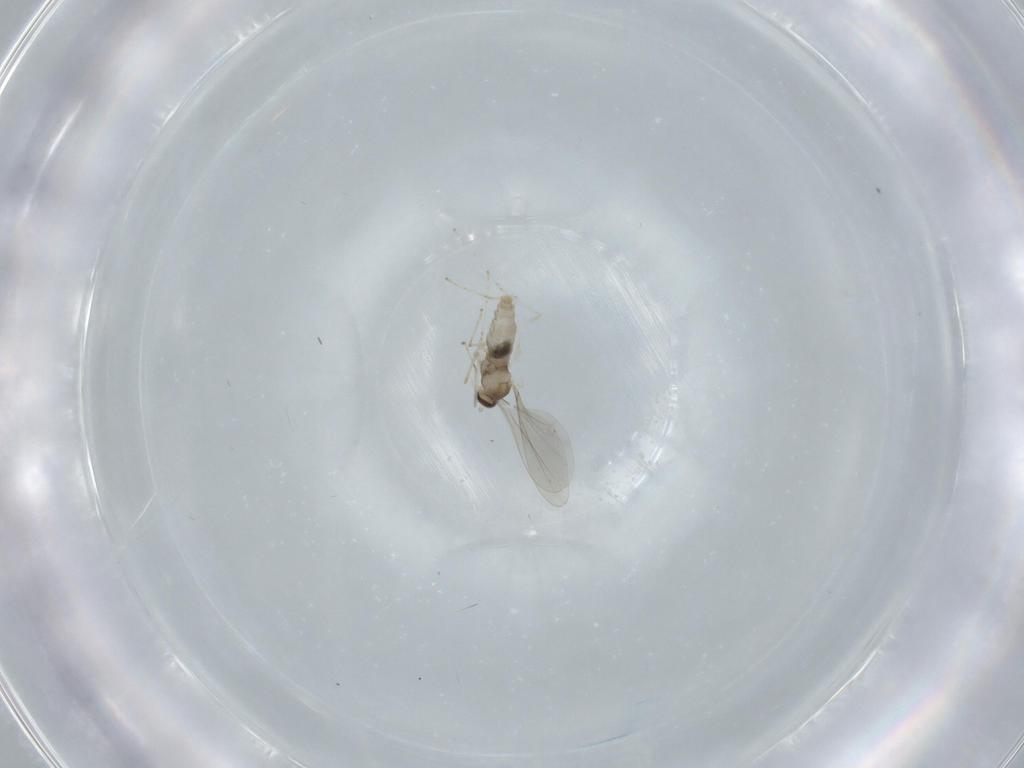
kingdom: Animalia
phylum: Arthropoda
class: Insecta
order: Diptera
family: Cecidomyiidae
